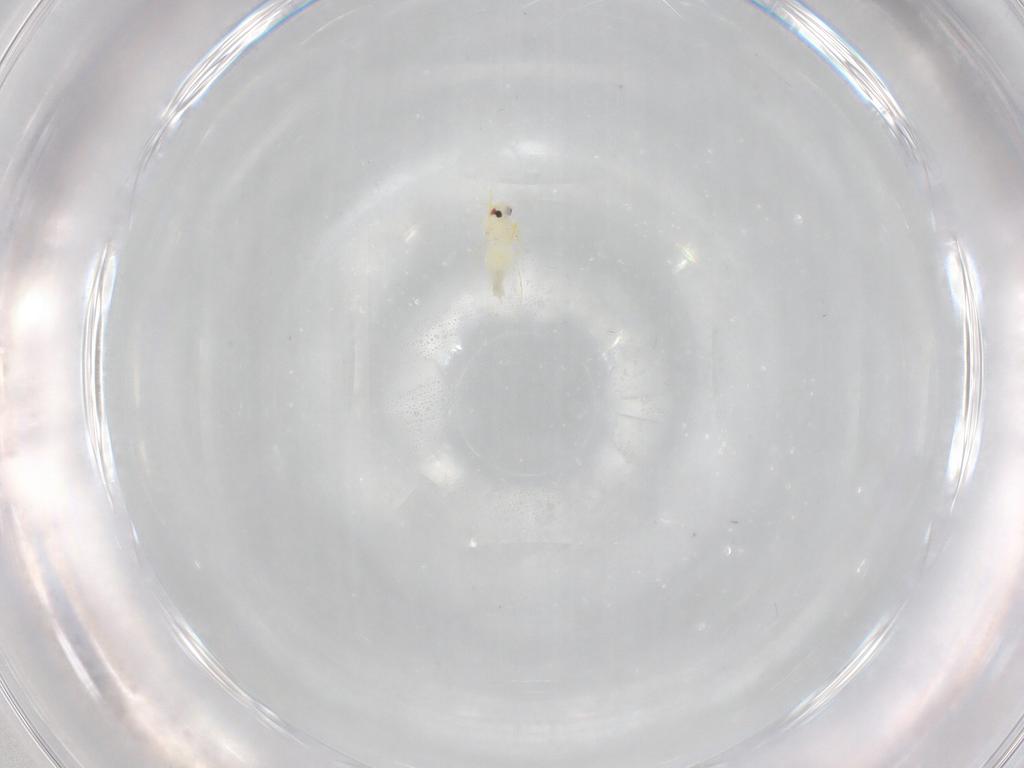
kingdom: Animalia
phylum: Arthropoda
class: Insecta
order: Hemiptera
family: Aleyrodidae
